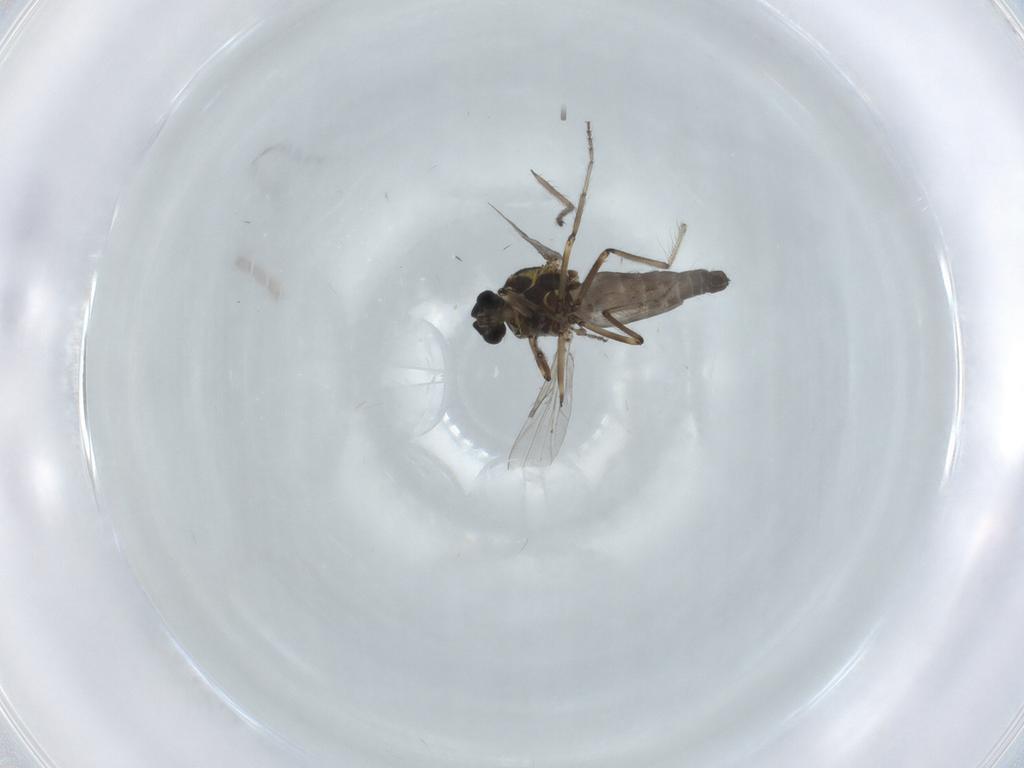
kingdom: Animalia
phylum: Arthropoda
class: Insecta
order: Diptera
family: Ceratopogonidae
